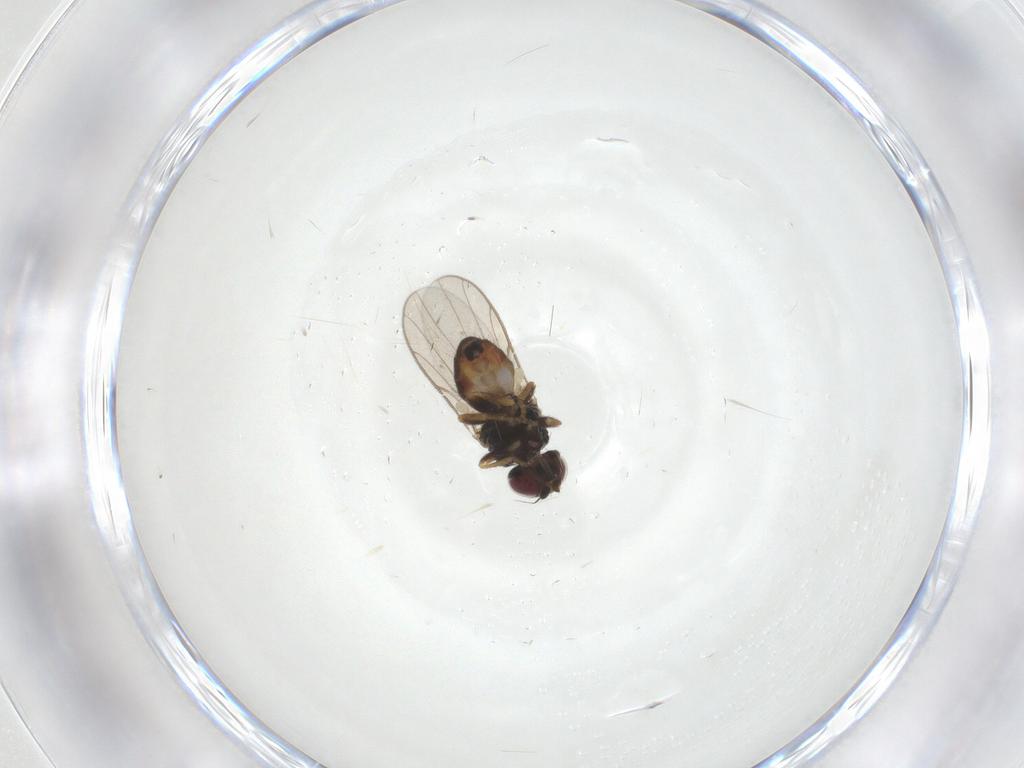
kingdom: Animalia
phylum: Arthropoda
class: Insecta
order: Diptera
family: Chloropidae
